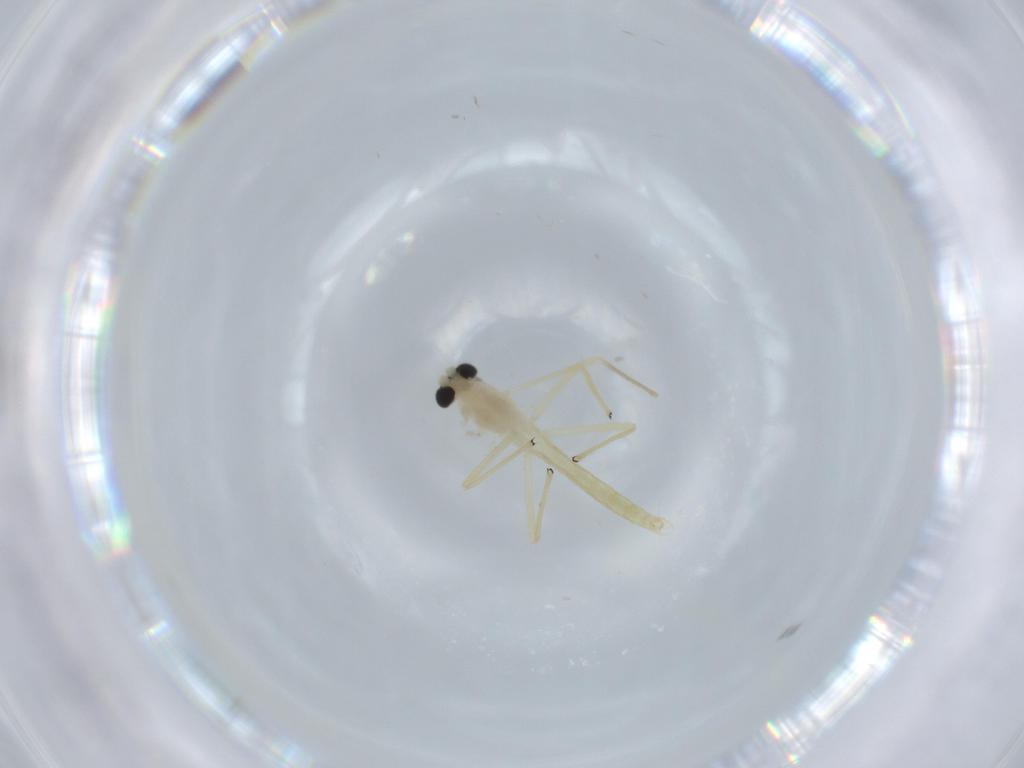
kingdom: Animalia
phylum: Arthropoda
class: Insecta
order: Diptera
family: Chironomidae
